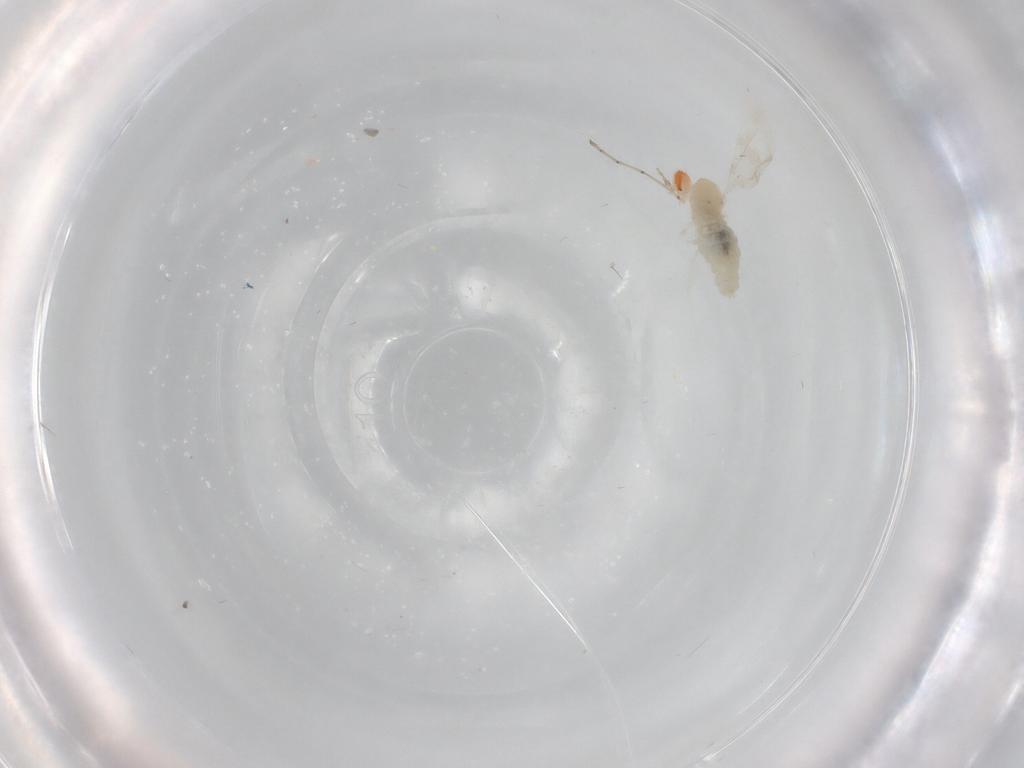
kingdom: Animalia
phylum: Arthropoda
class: Insecta
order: Diptera
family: Cecidomyiidae
